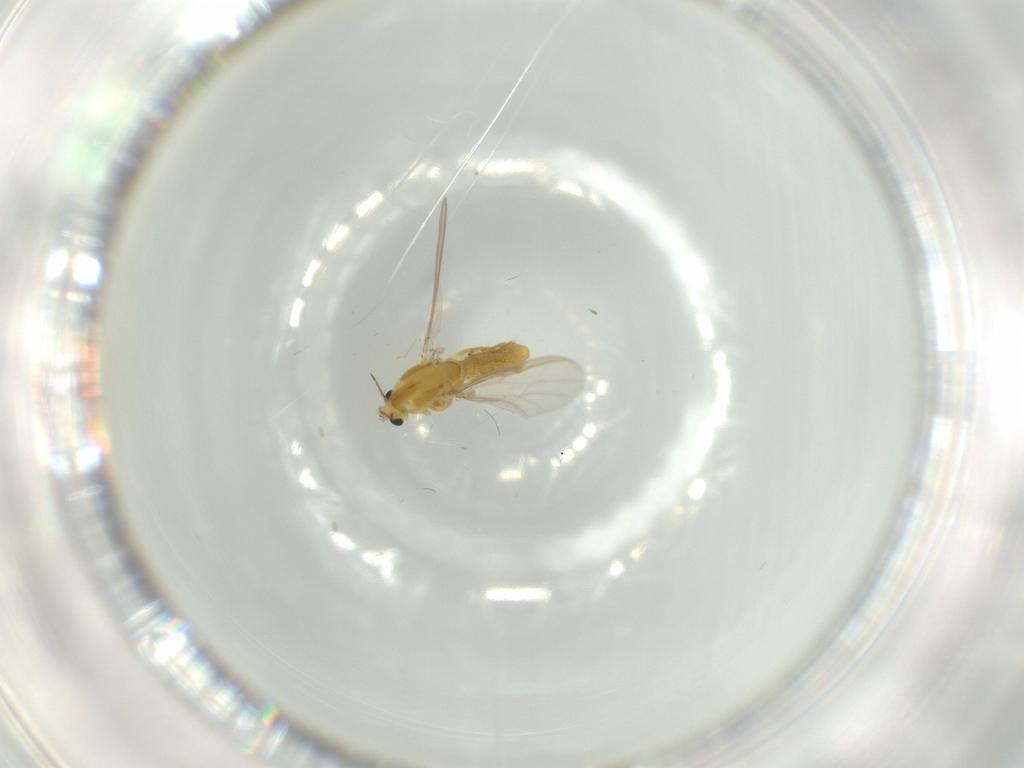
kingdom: Animalia
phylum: Arthropoda
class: Insecta
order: Diptera
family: Chironomidae
